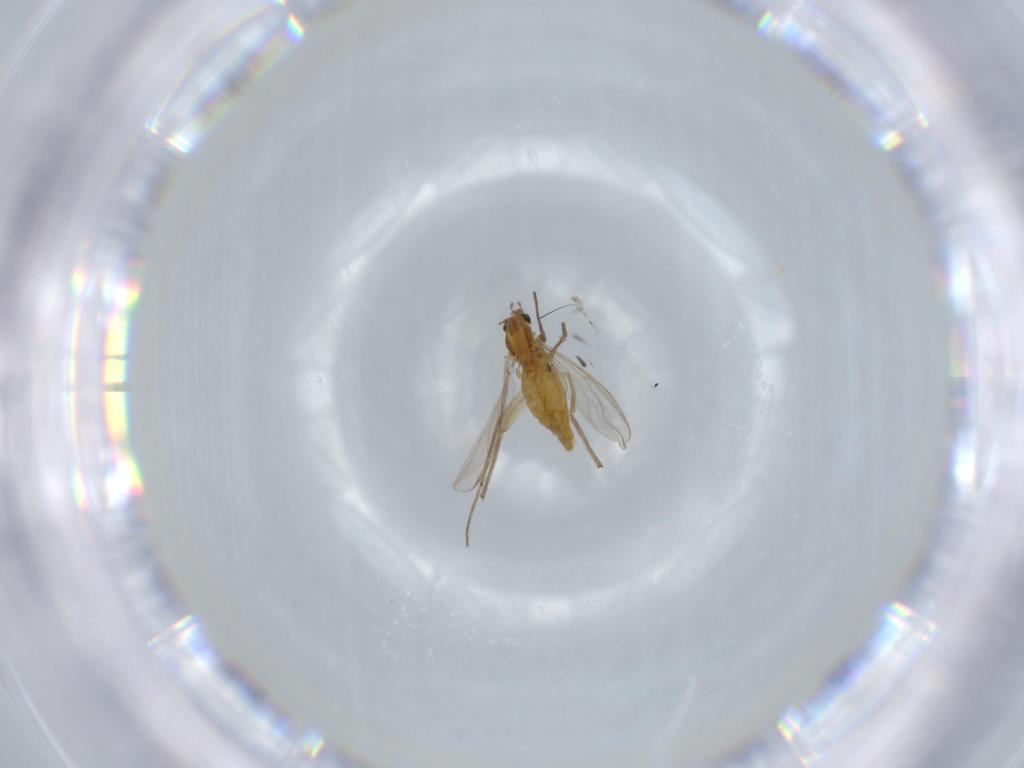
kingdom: Animalia
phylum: Arthropoda
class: Insecta
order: Diptera
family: Chironomidae
